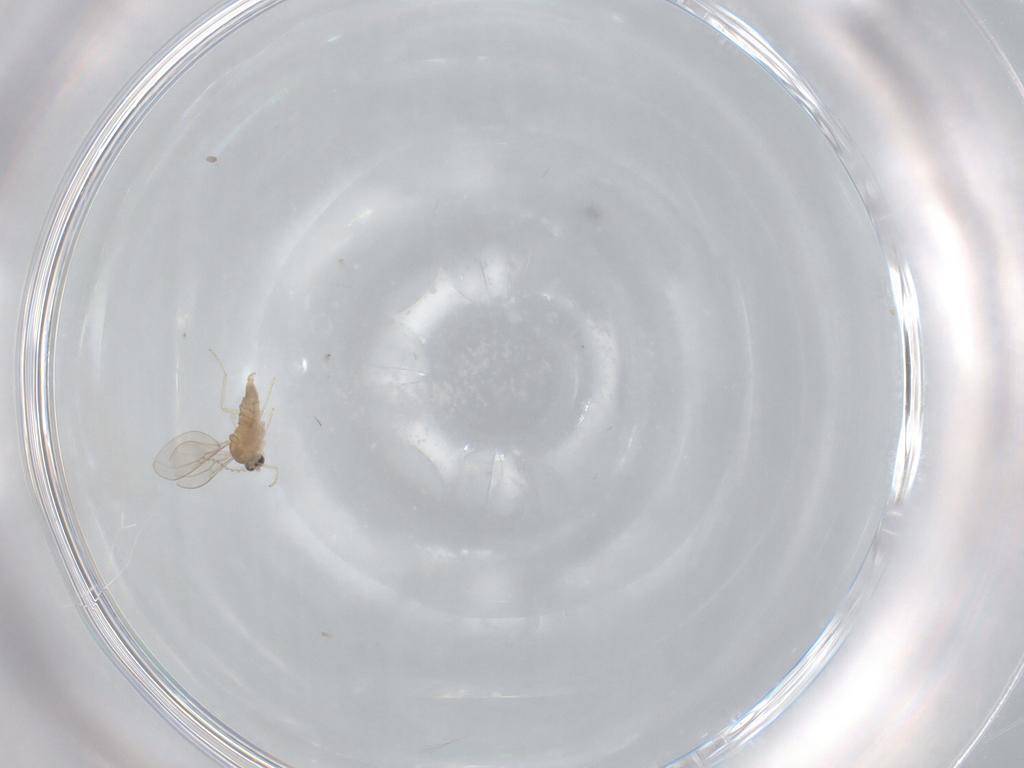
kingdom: Animalia
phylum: Arthropoda
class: Insecta
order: Diptera
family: Cecidomyiidae
